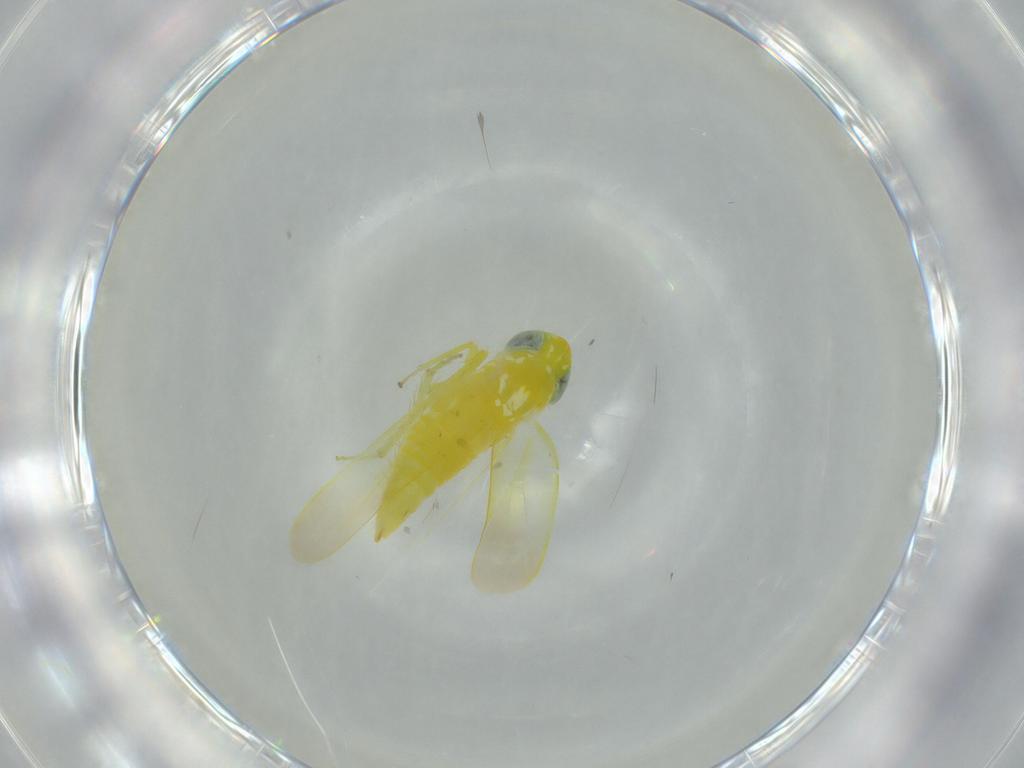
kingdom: Animalia
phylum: Arthropoda
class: Insecta
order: Hemiptera
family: Cicadellidae
